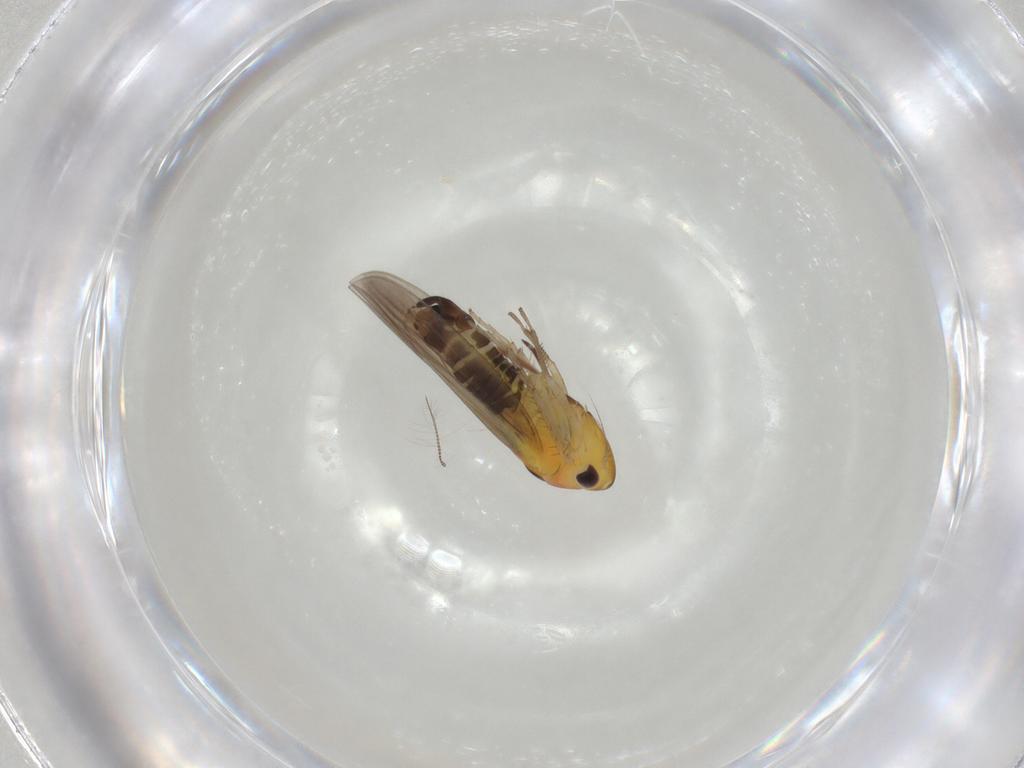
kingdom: Animalia
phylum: Arthropoda
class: Insecta
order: Hemiptera
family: Cicadellidae
